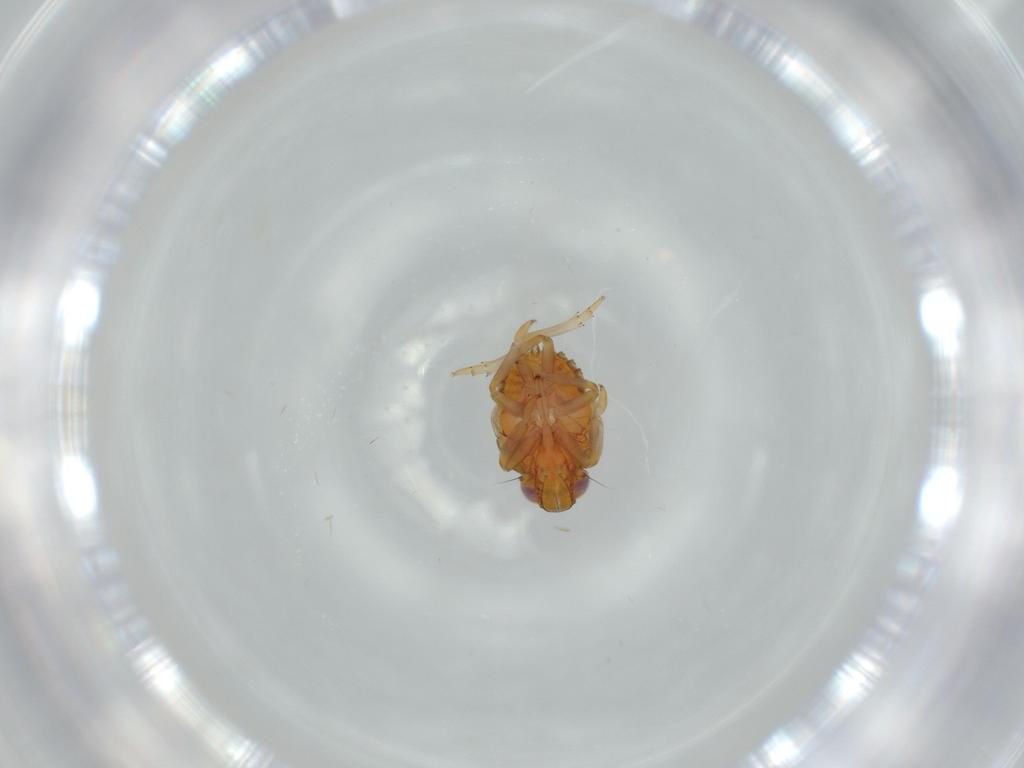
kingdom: Animalia
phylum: Arthropoda
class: Insecta
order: Hemiptera
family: Issidae
